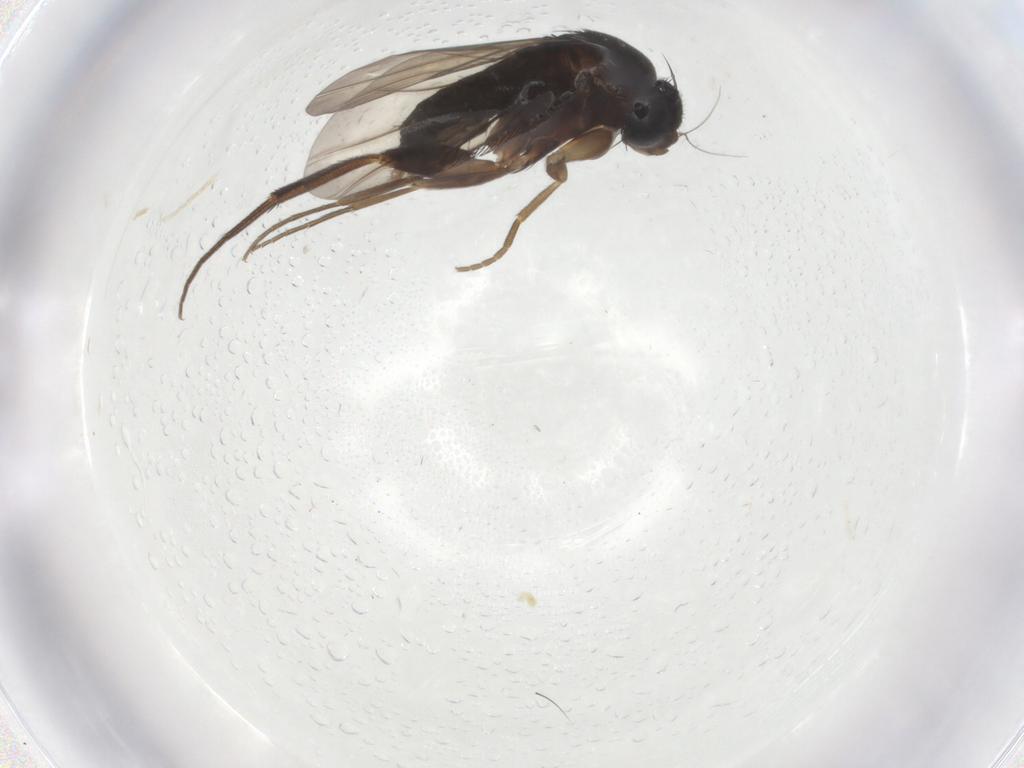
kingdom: Animalia
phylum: Arthropoda
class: Insecta
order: Diptera
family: Phoridae
